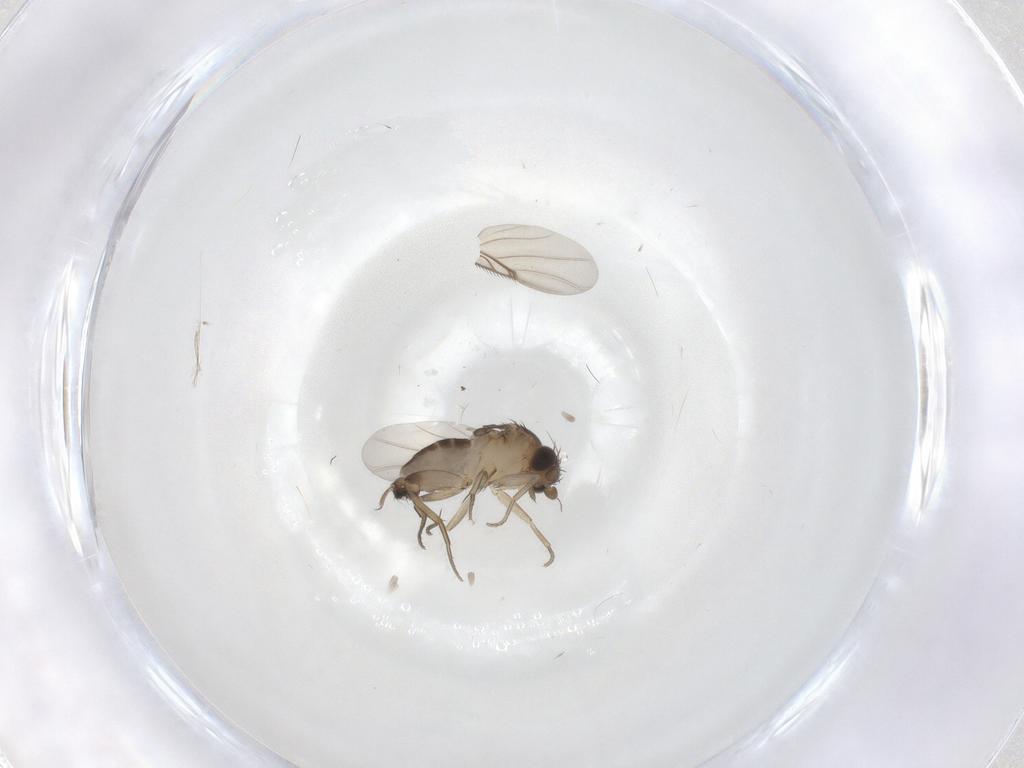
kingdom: Animalia
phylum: Arthropoda
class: Insecta
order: Diptera
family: Phoridae
